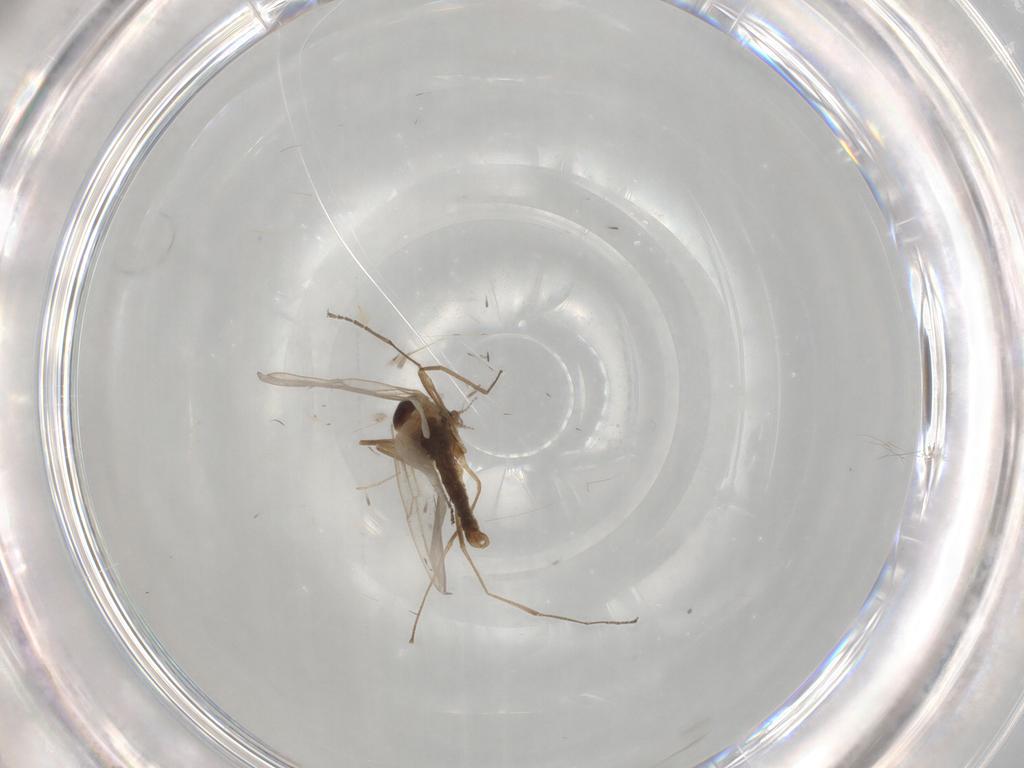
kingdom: Animalia
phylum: Arthropoda
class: Insecta
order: Diptera
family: Cecidomyiidae
